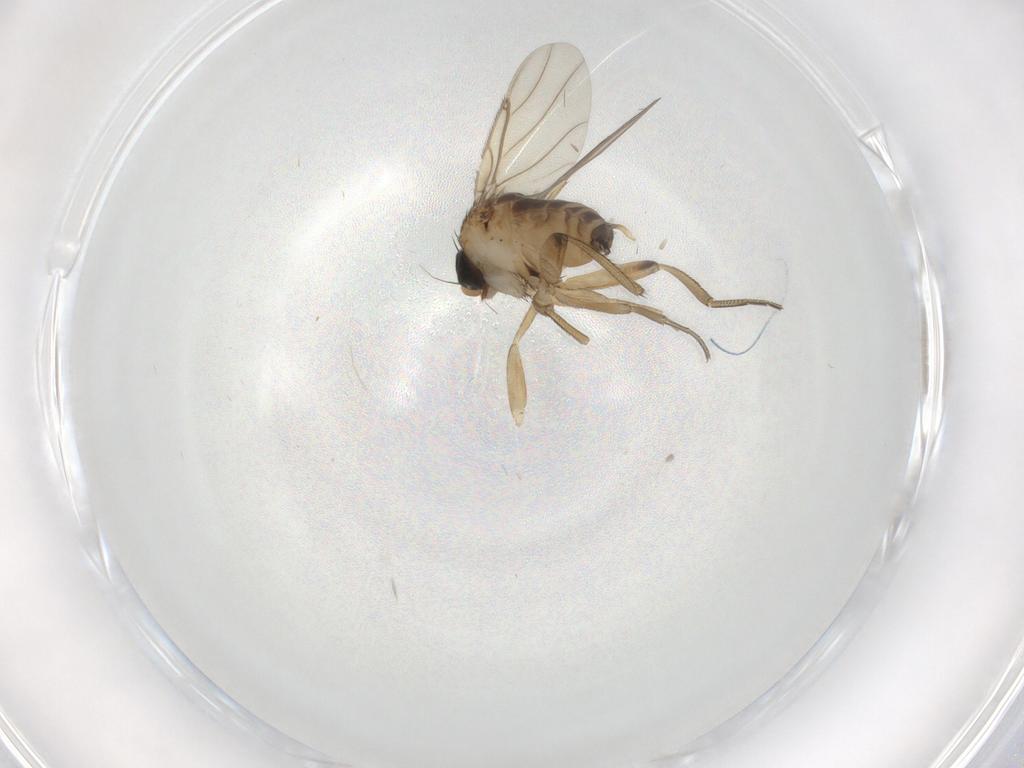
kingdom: Animalia
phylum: Arthropoda
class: Insecta
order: Diptera
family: Phoridae
